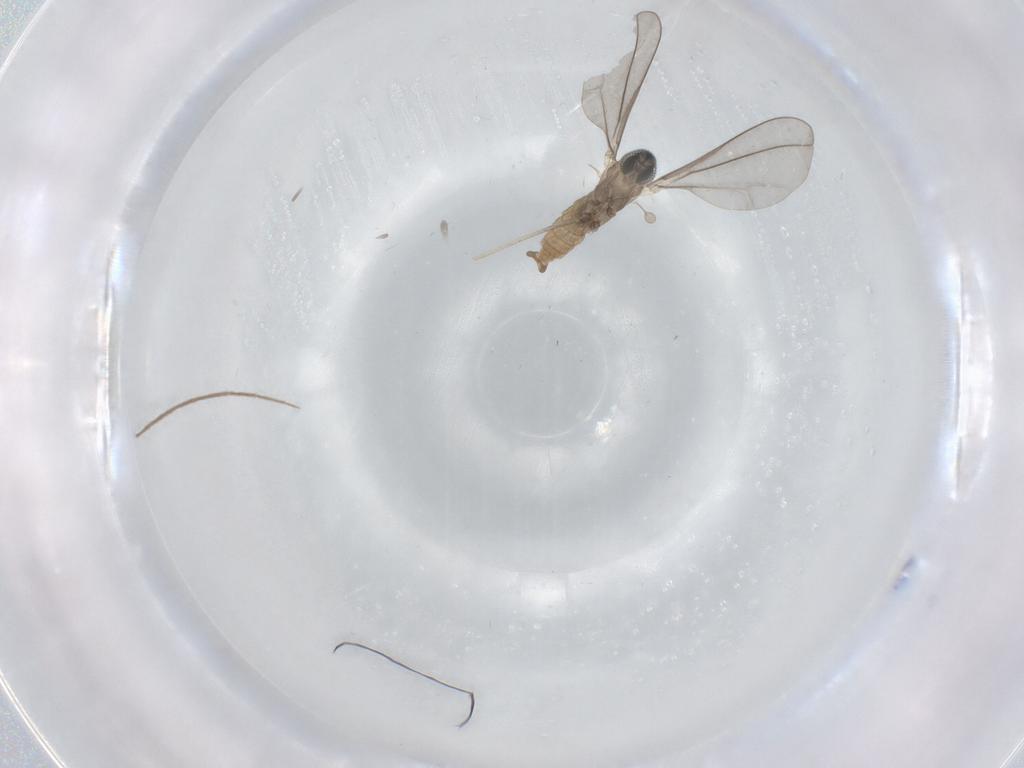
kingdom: Animalia
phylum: Arthropoda
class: Insecta
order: Diptera
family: Cecidomyiidae
